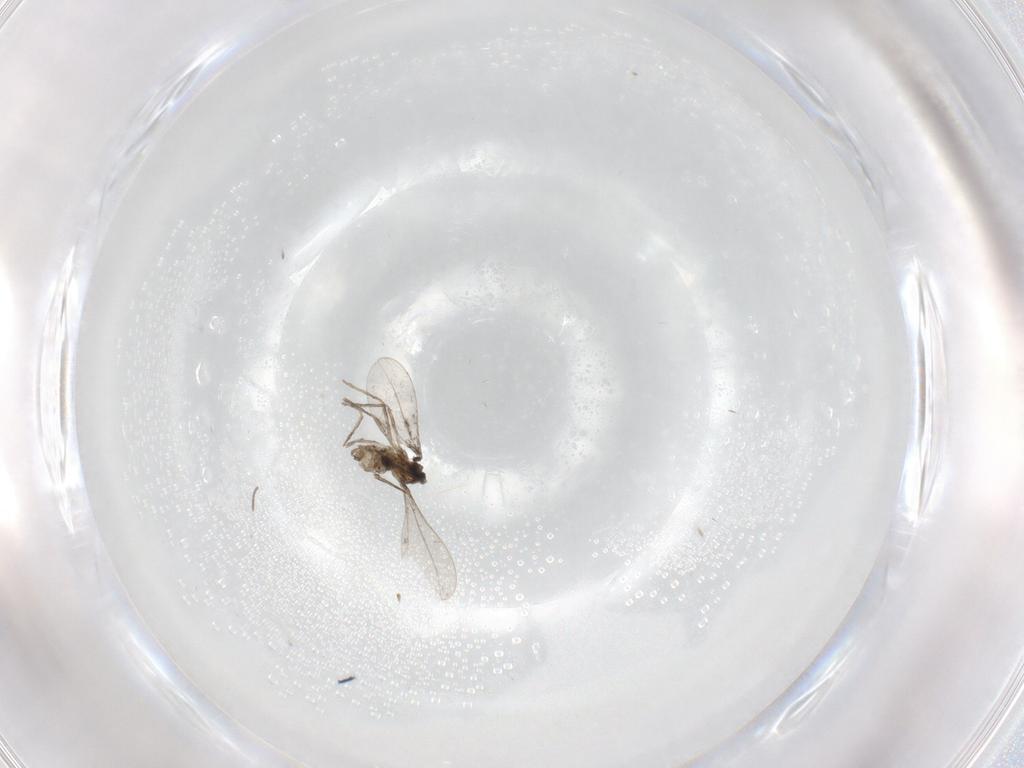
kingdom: Animalia
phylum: Arthropoda
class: Insecta
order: Diptera
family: Cecidomyiidae
